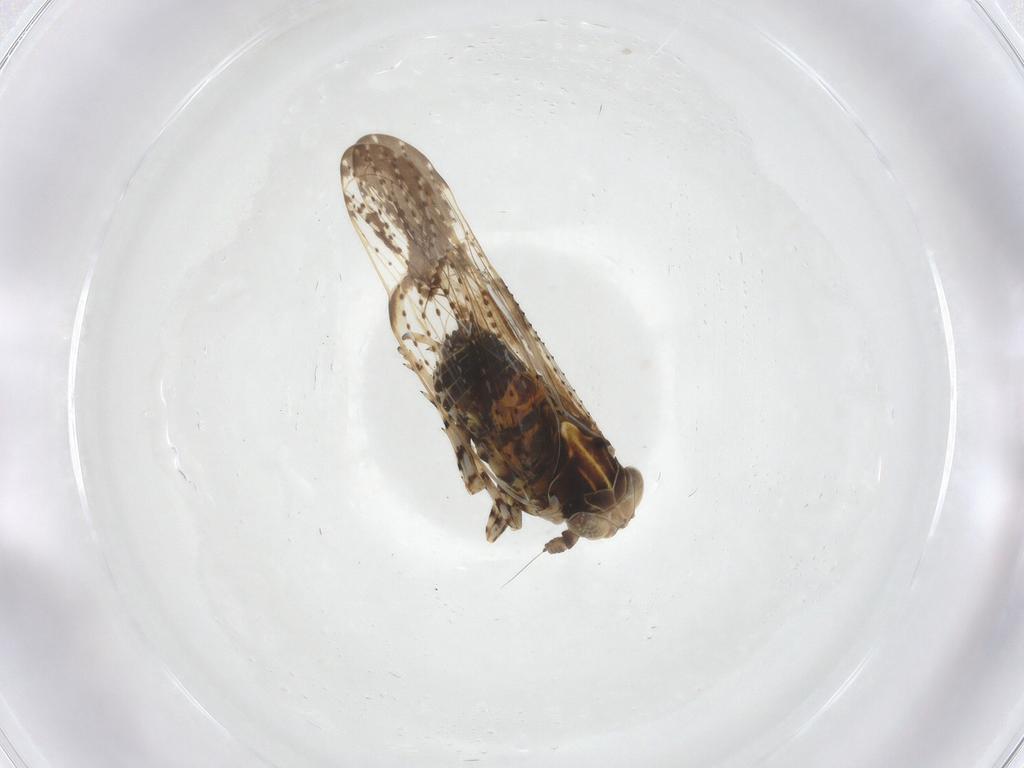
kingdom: Animalia
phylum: Arthropoda
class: Insecta
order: Hemiptera
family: Delphacidae
